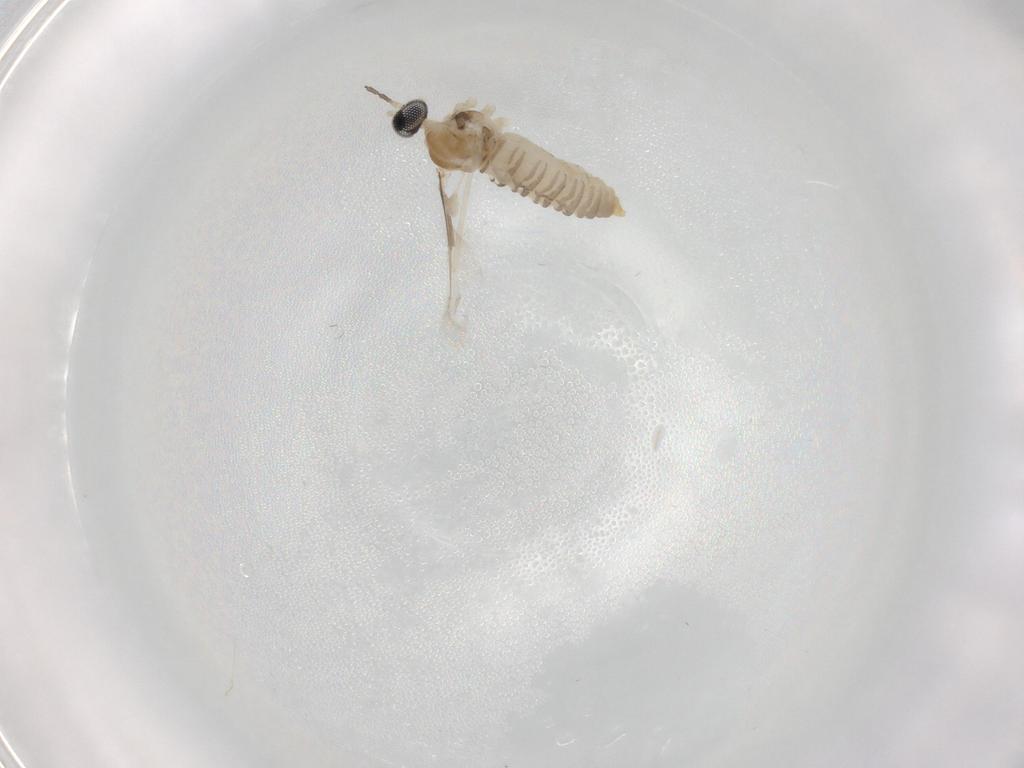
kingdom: Animalia
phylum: Arthropoda
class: Insecta
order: Diptera
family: Cecidomyiidae
